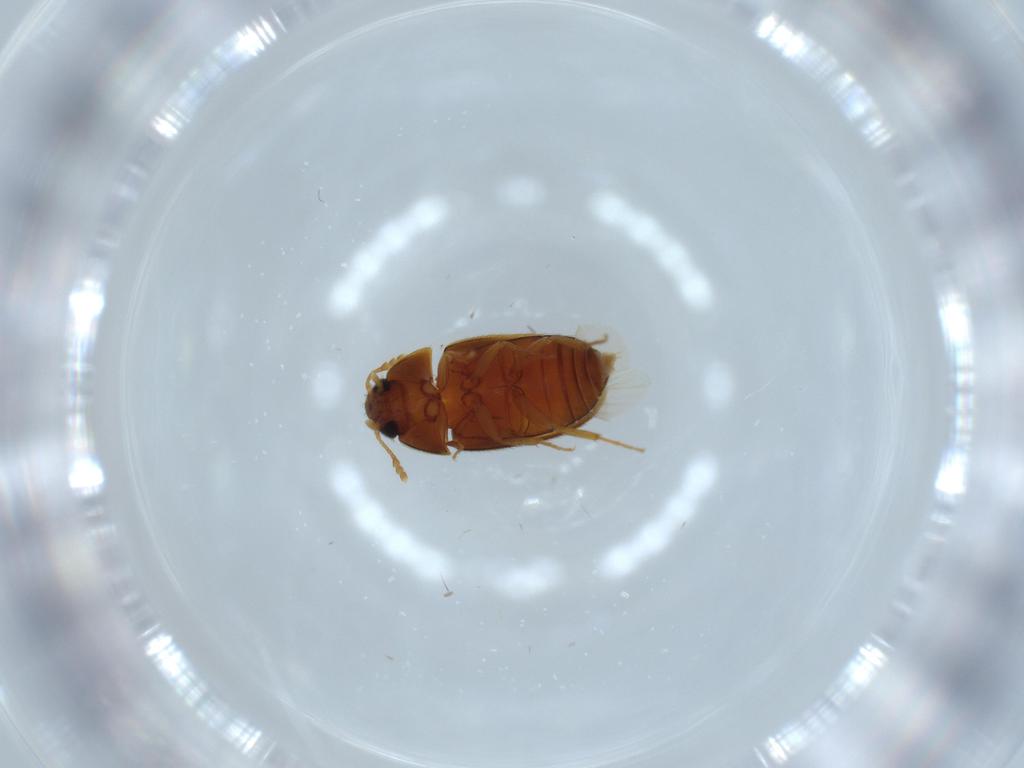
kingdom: Animalia
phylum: Arthropoda
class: Insecta
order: Coleoptera
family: Mycetophagidae
